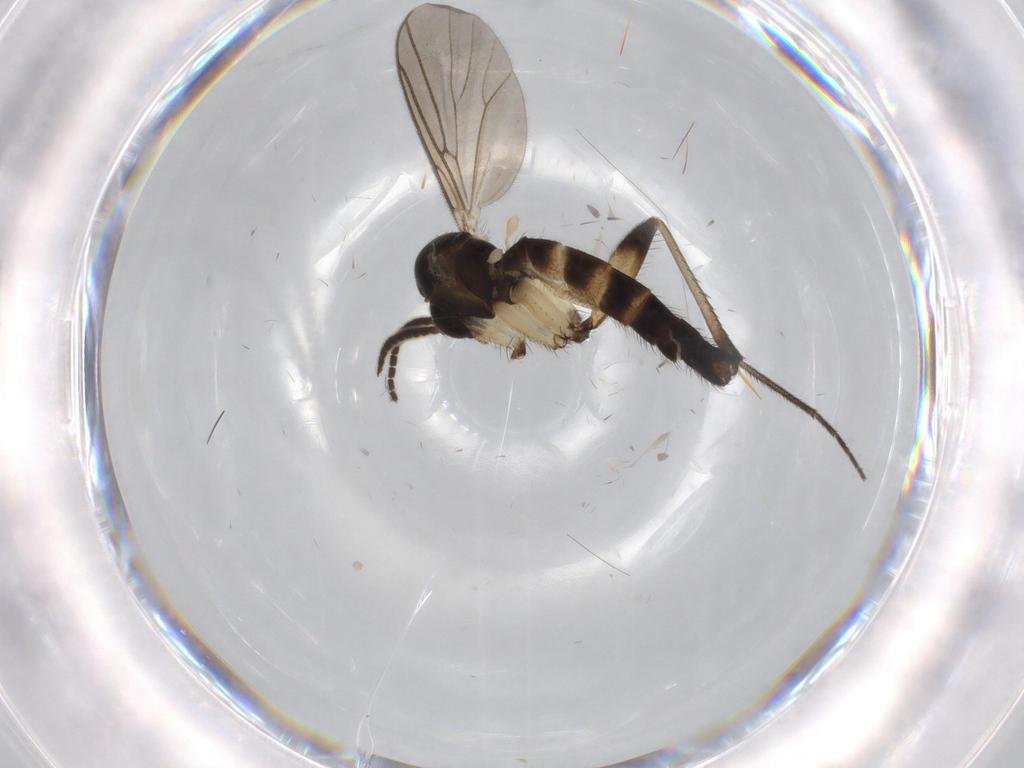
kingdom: Animalia
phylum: Arthropoda
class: Insecta
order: Diptera
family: Mycetophilidae
